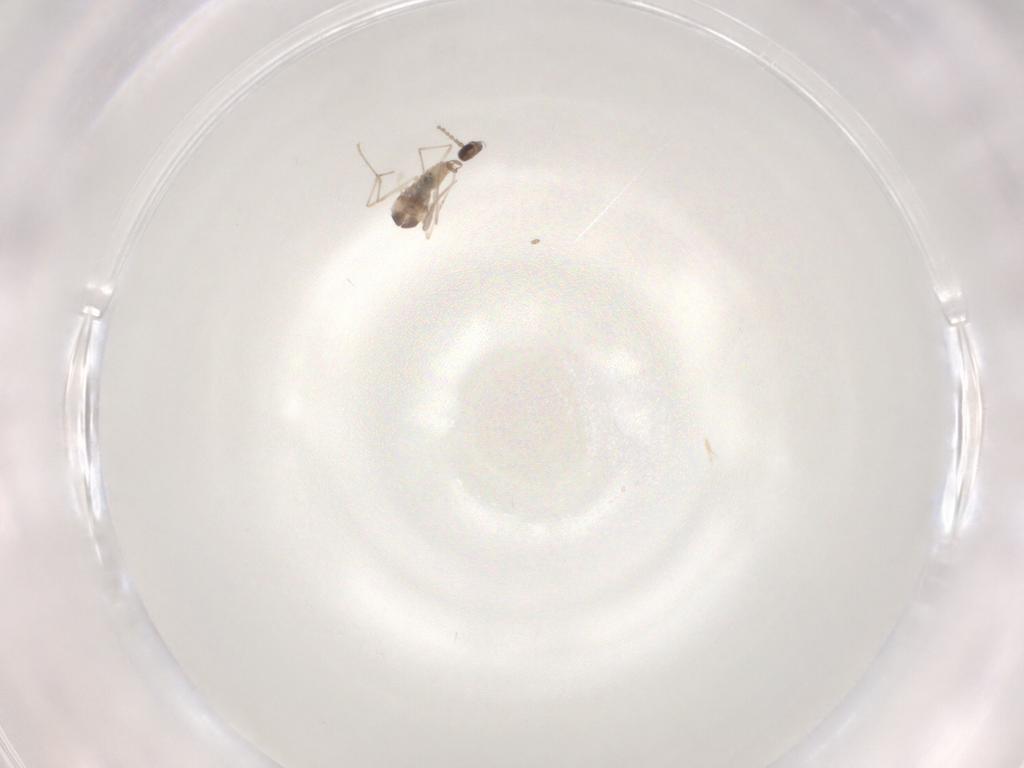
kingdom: Animalia
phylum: Arthropoda
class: Insecta
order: Diptera
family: Cecidomyiidae
